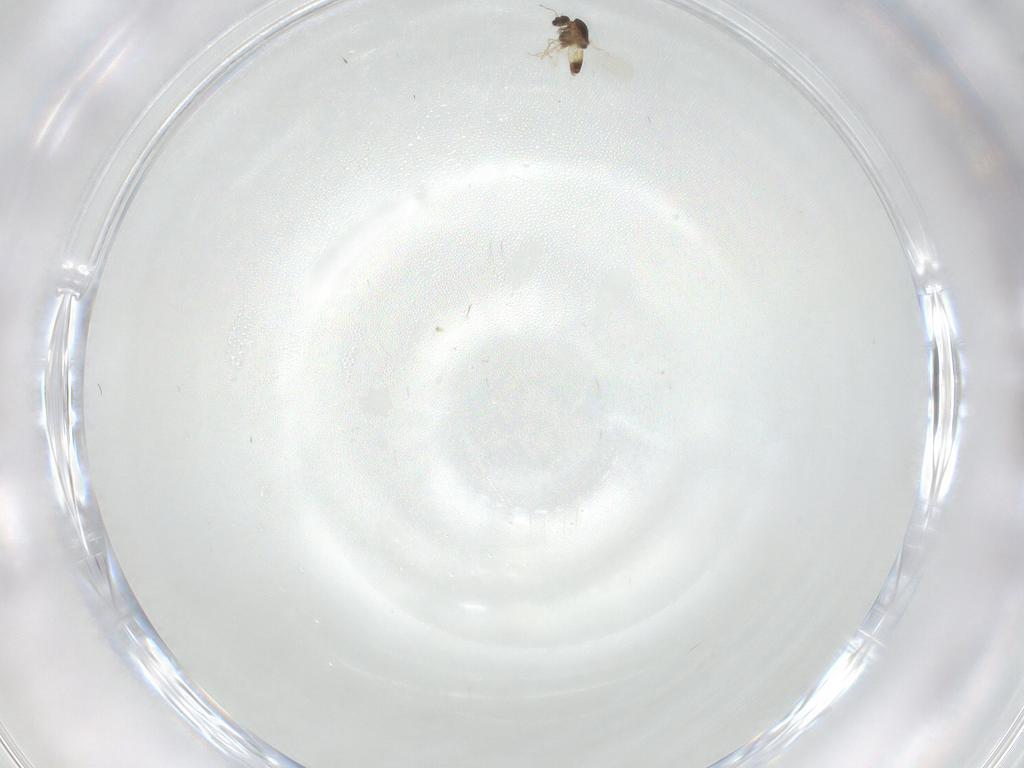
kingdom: Animalia
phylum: Arthropoda
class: Insecta
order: Diptera
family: Chironomidae
